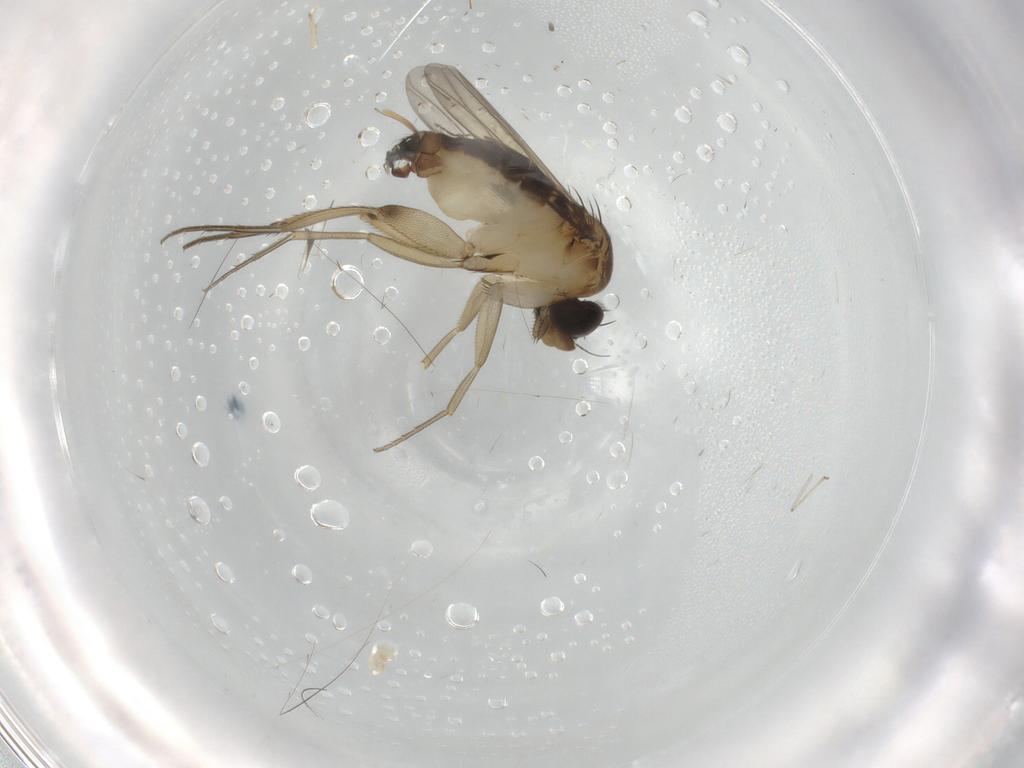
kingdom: Animalia
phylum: Arthropoda
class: Insecta
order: Diptera
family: Phoridae
